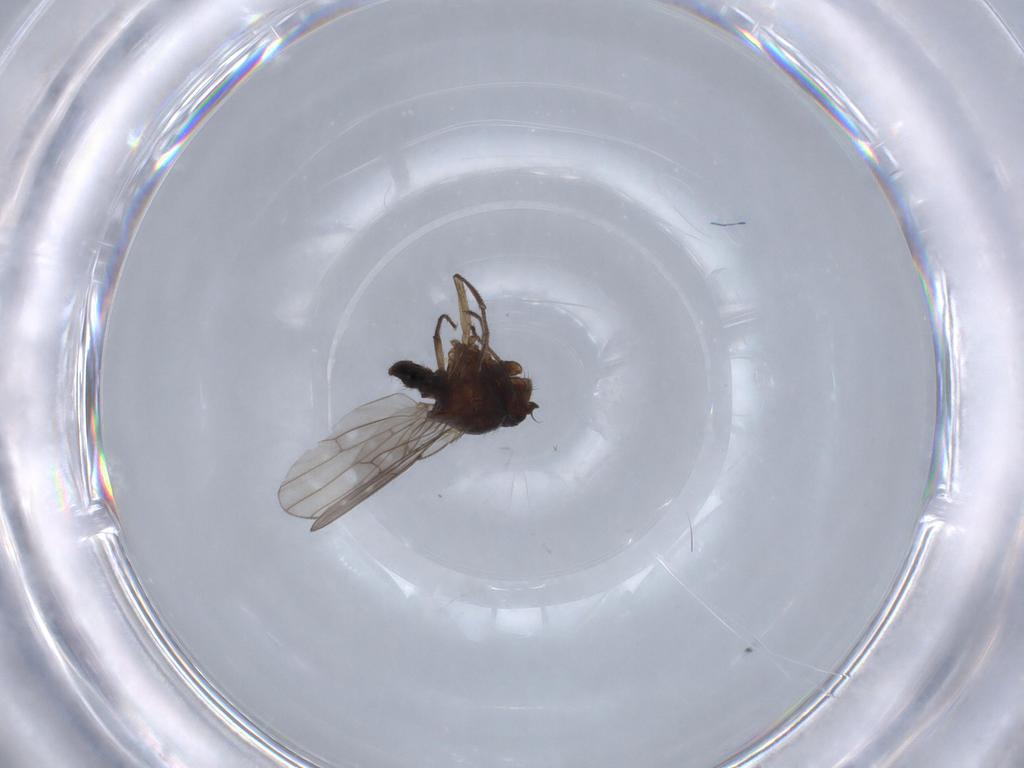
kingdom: Animalia
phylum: Arthropoda
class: Insecta
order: Diptera
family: Ephydridae
